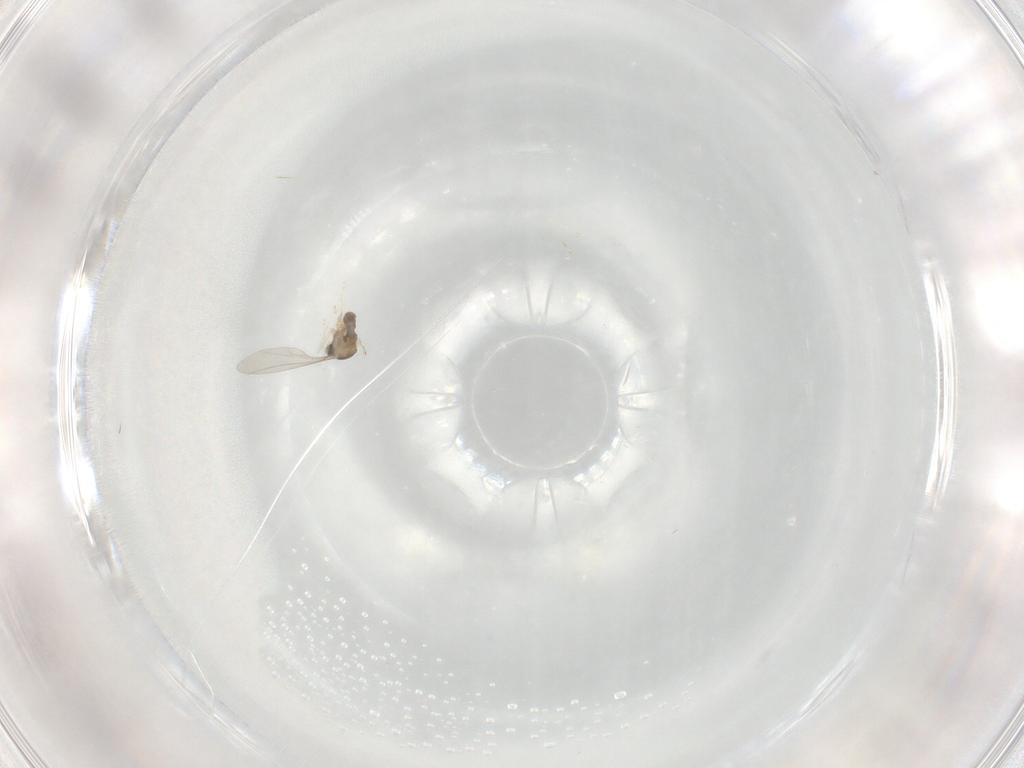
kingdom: Animalia
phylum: Arthropoda
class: Insecta
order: Diptera
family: Cecidomyiidae
